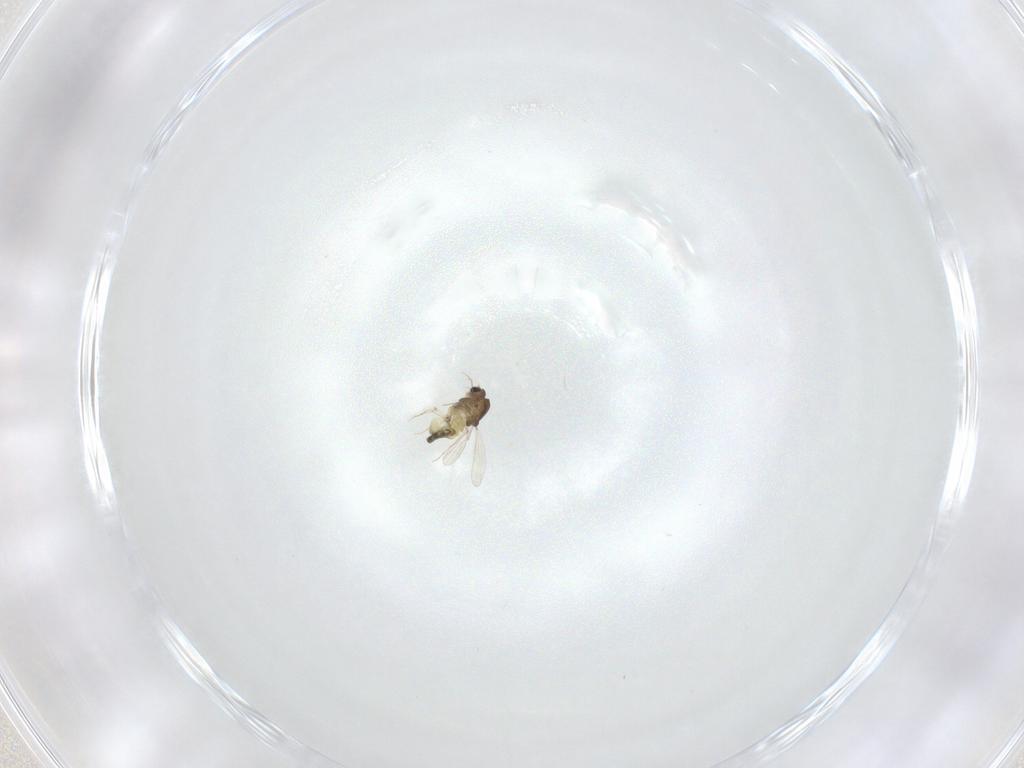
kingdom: Animalia
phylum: Arthropoda
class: Insecta
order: Diptera
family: Chironomidae
